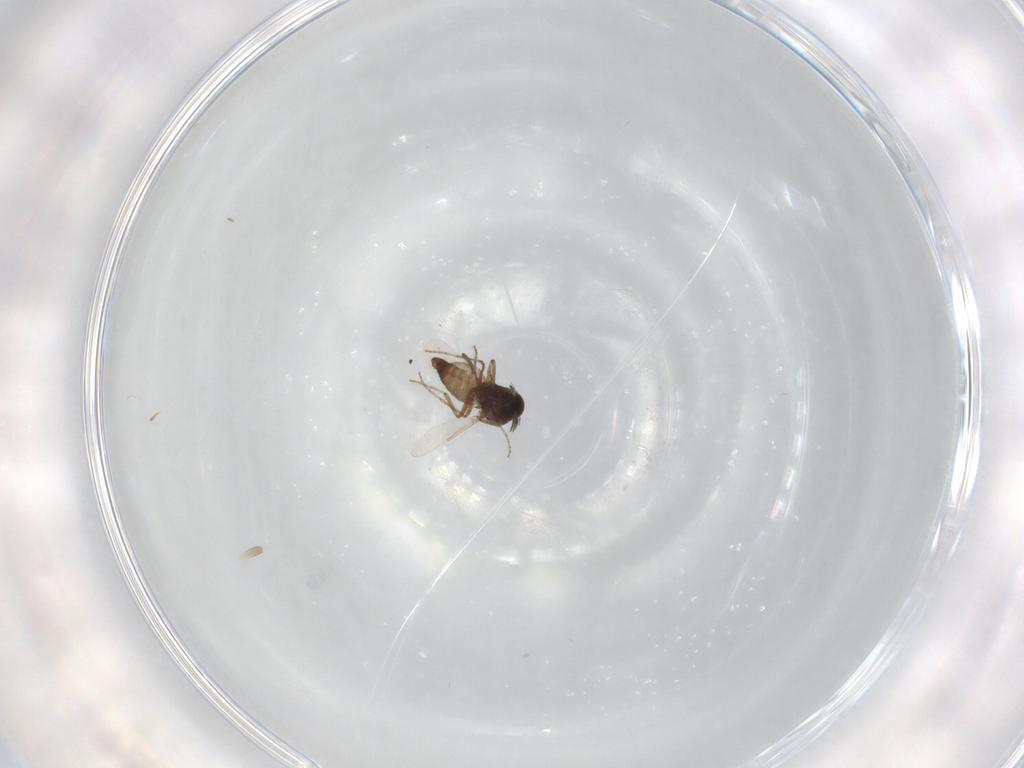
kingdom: Animalia
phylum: Arthropoda
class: Insecta
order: Diptera
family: Ceratopogonidae
